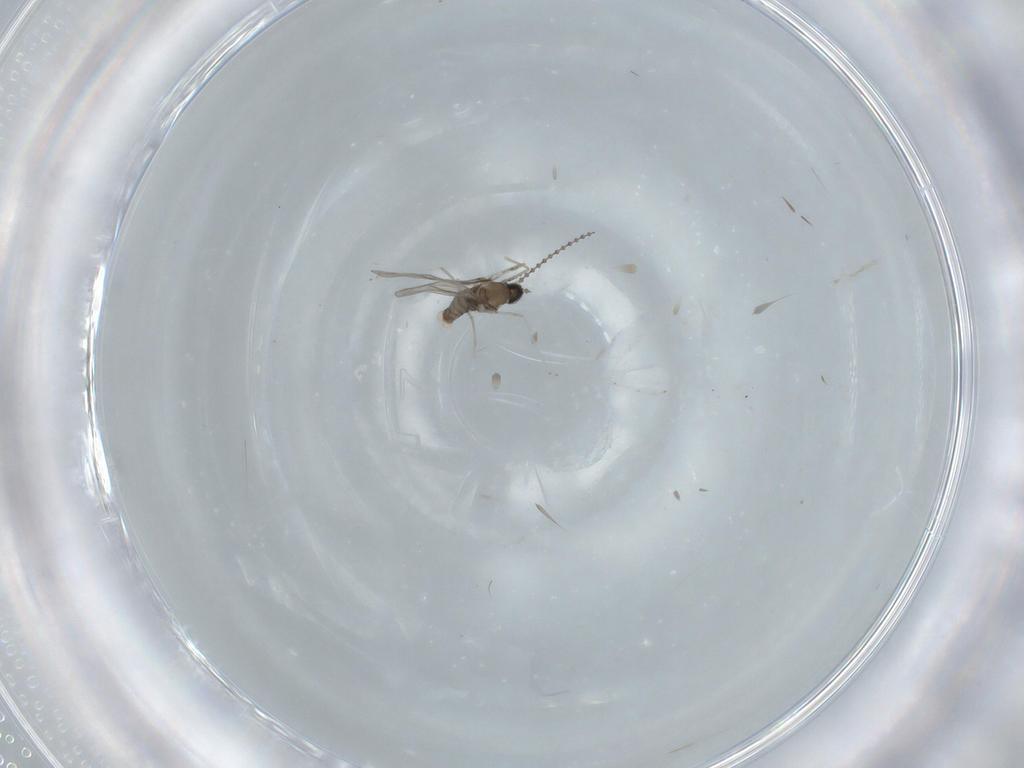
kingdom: Animalia
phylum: Arthropoda
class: Insecta
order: Diptera
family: Cecidomyiidae
